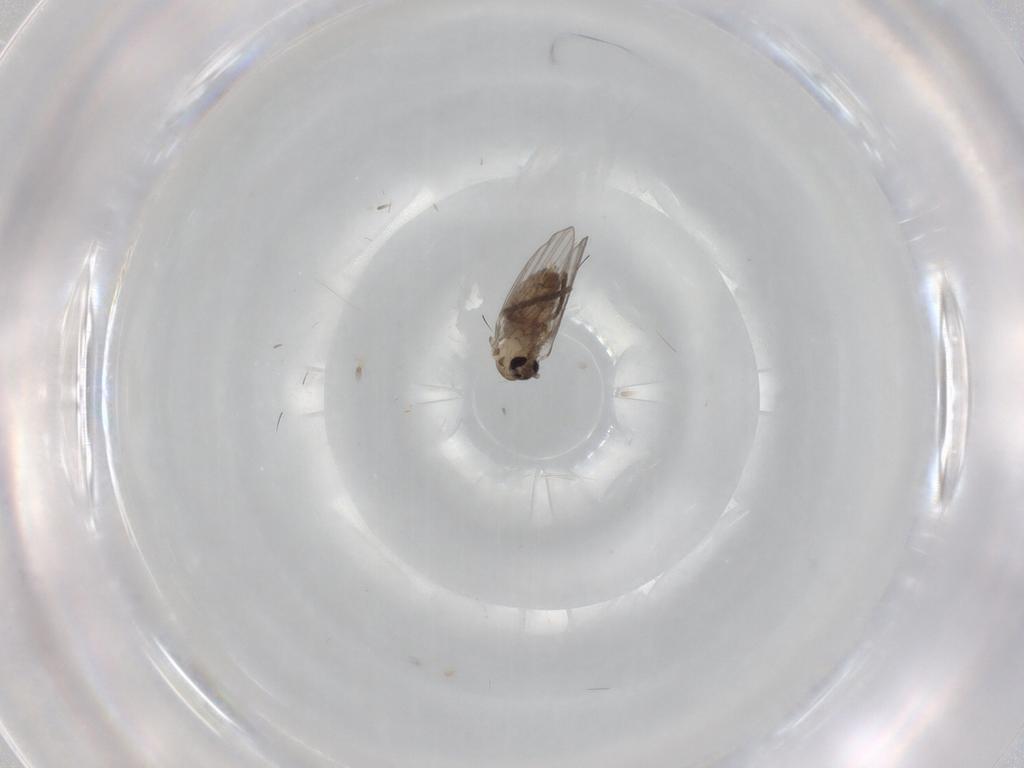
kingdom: Animalia
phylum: Arthropoda
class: Insecta
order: Diptera
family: Psychodidae
